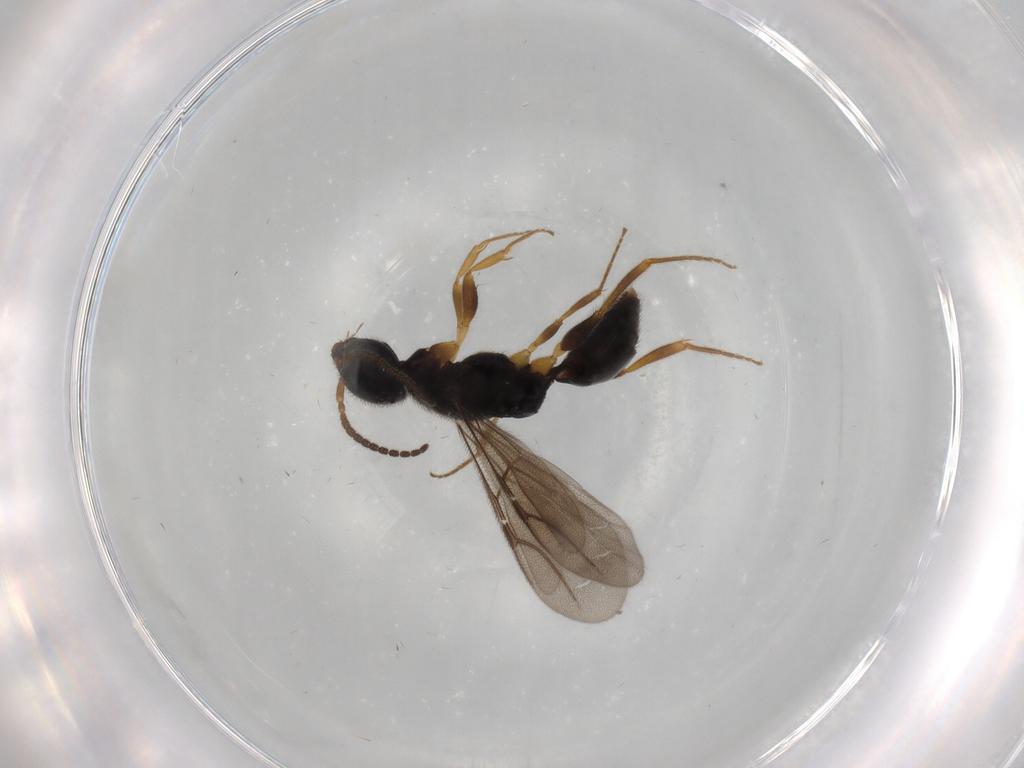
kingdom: Animalia
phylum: Arthropoda
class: Insecta
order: Hymenoptera
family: Bethylidae
